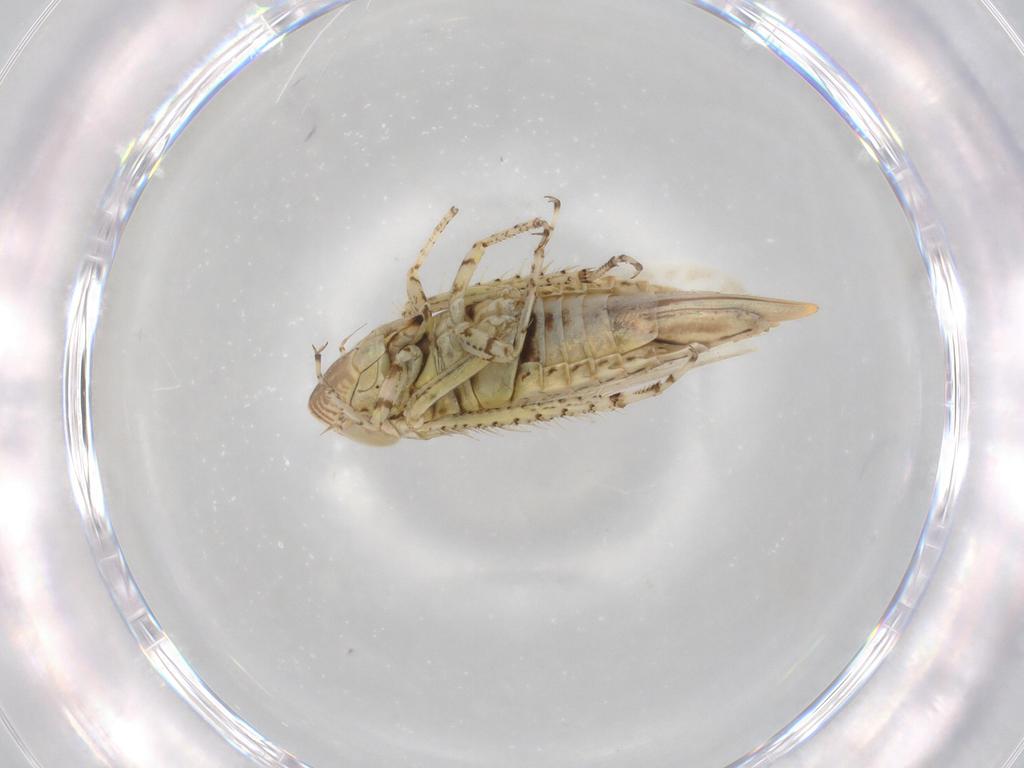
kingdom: Animalia
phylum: Arthropoda
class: Insecta
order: Hemiptera
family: Cicadellidae
